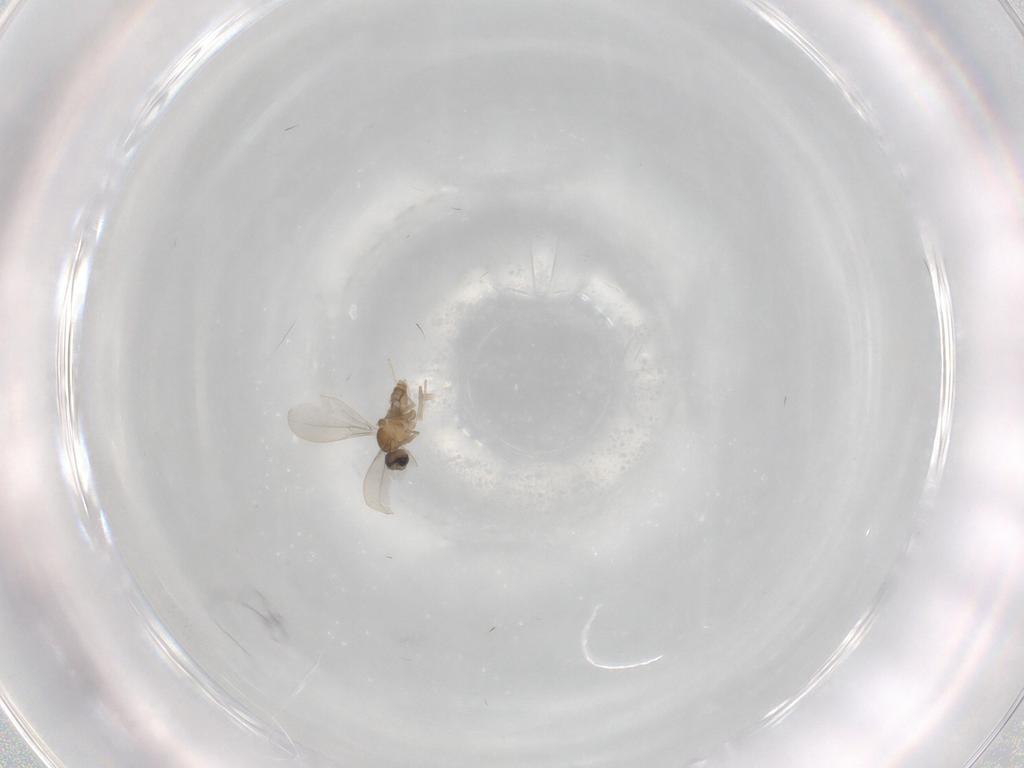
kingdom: Animalia
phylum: Arthropoda
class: Insecta
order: Diptera
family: Cecidomyiidae
